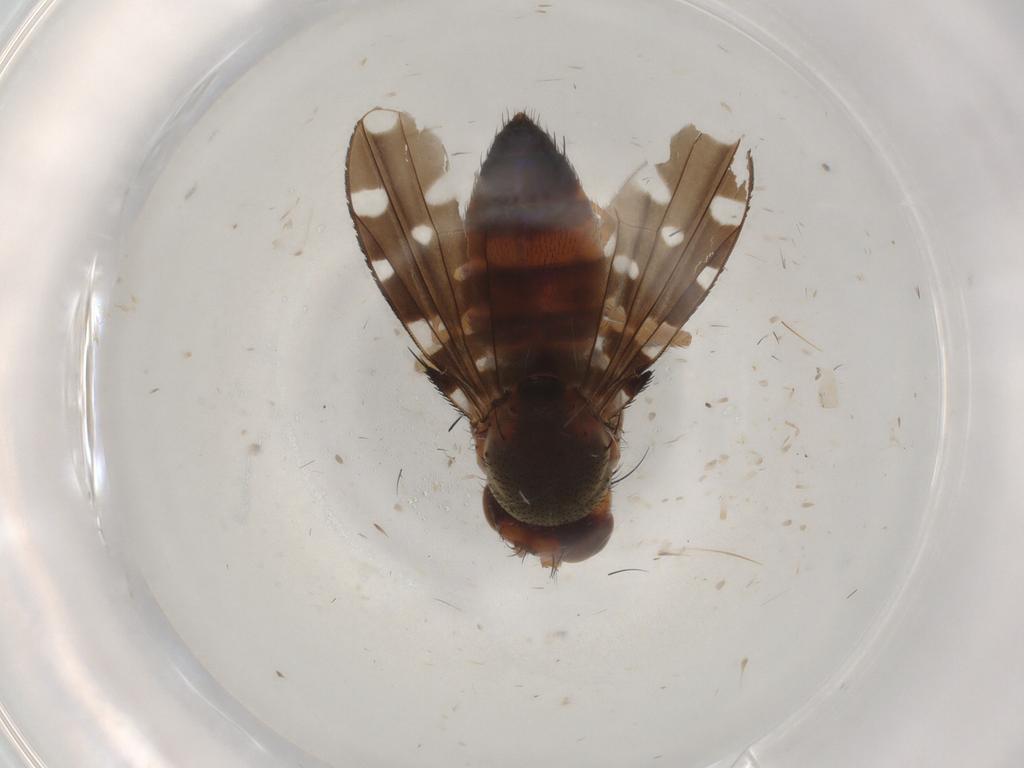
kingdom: Animalia
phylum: Arthropoda
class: Insecta
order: Diptera
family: Ephydridae
